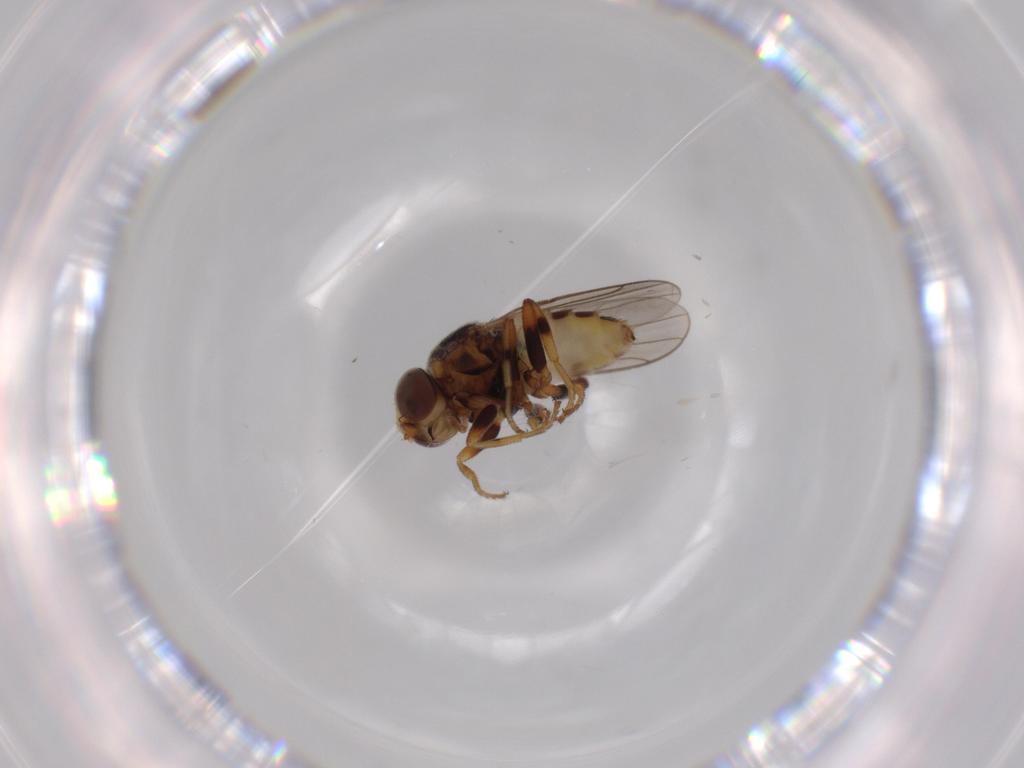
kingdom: Animalia
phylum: Arthropoda
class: Insecta
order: Diptera
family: Chloropidae
